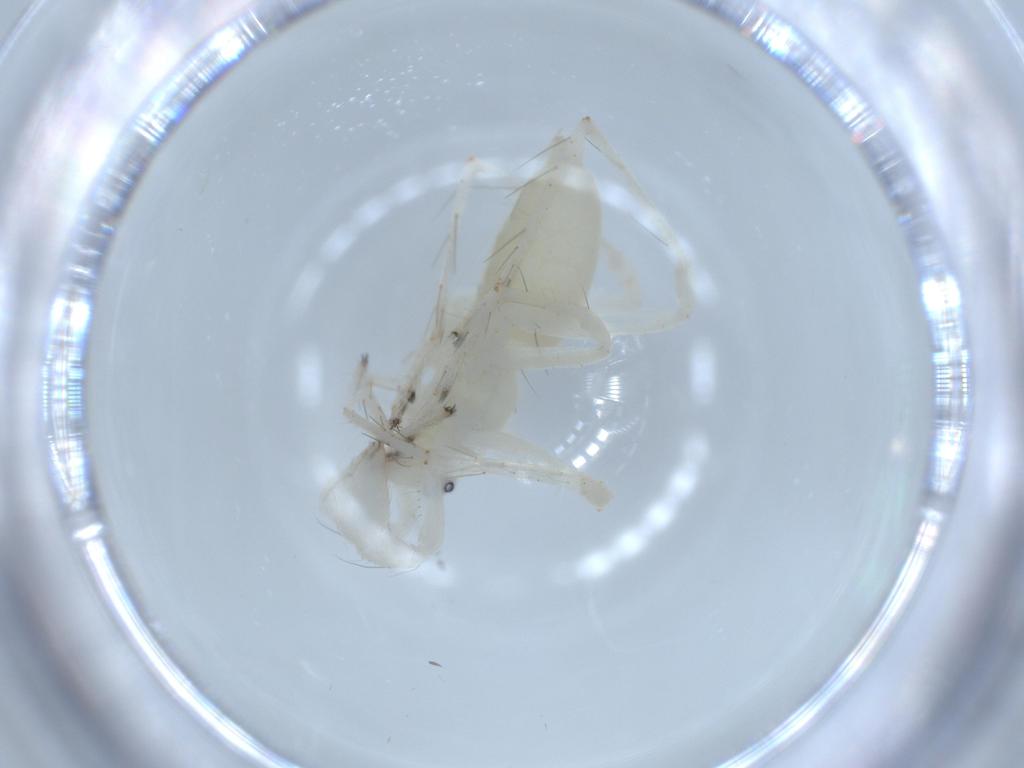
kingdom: Animalia
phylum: Arthropoda
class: Arachnida
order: Araneae
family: Anyphaenidae
